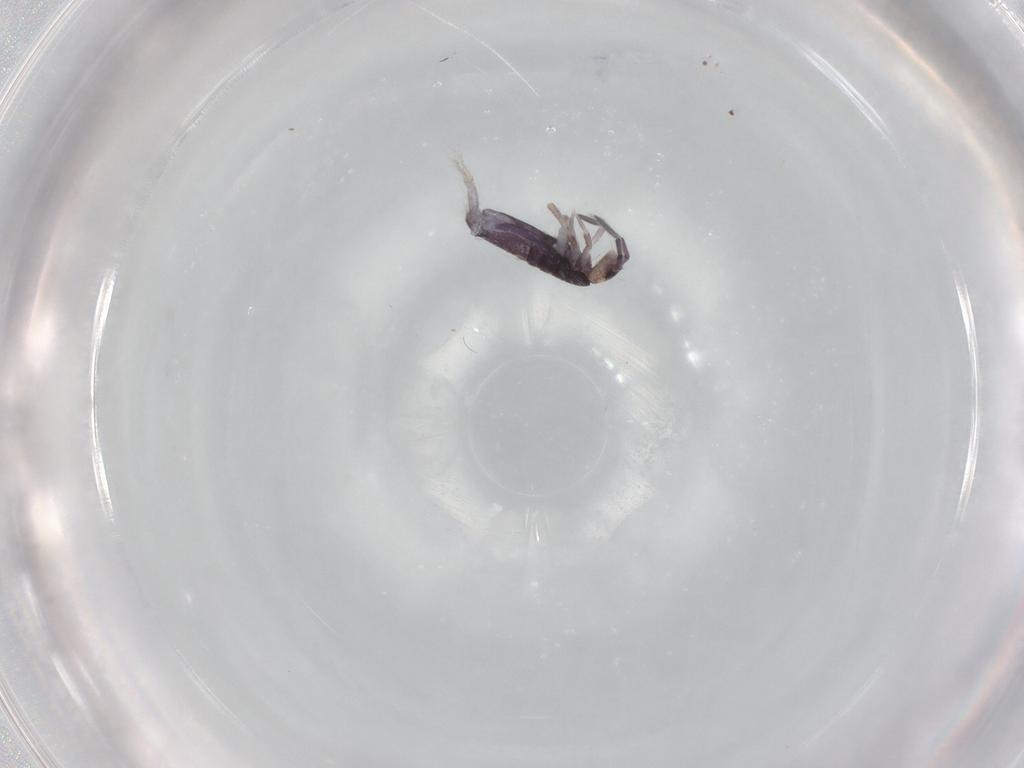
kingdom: Animalia
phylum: Arthropoda
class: Collembola
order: Entomobryomorpha
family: Entomobryidae
